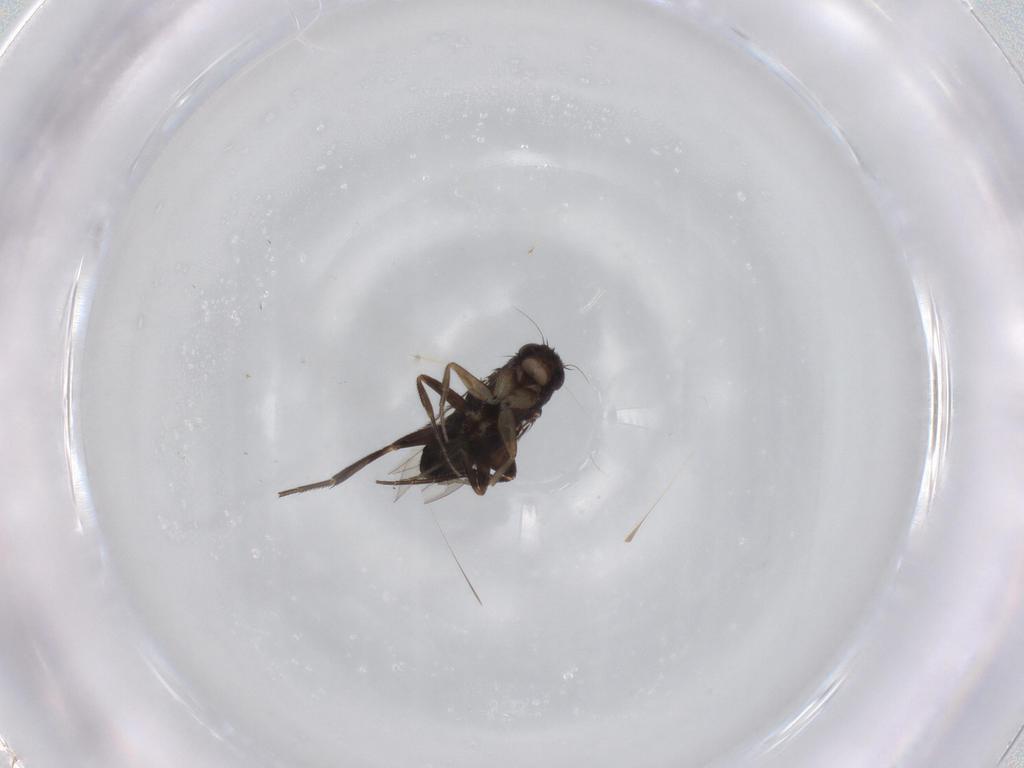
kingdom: Animalia
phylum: Arthropoda
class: Insecta
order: Diptera
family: Phoridae
